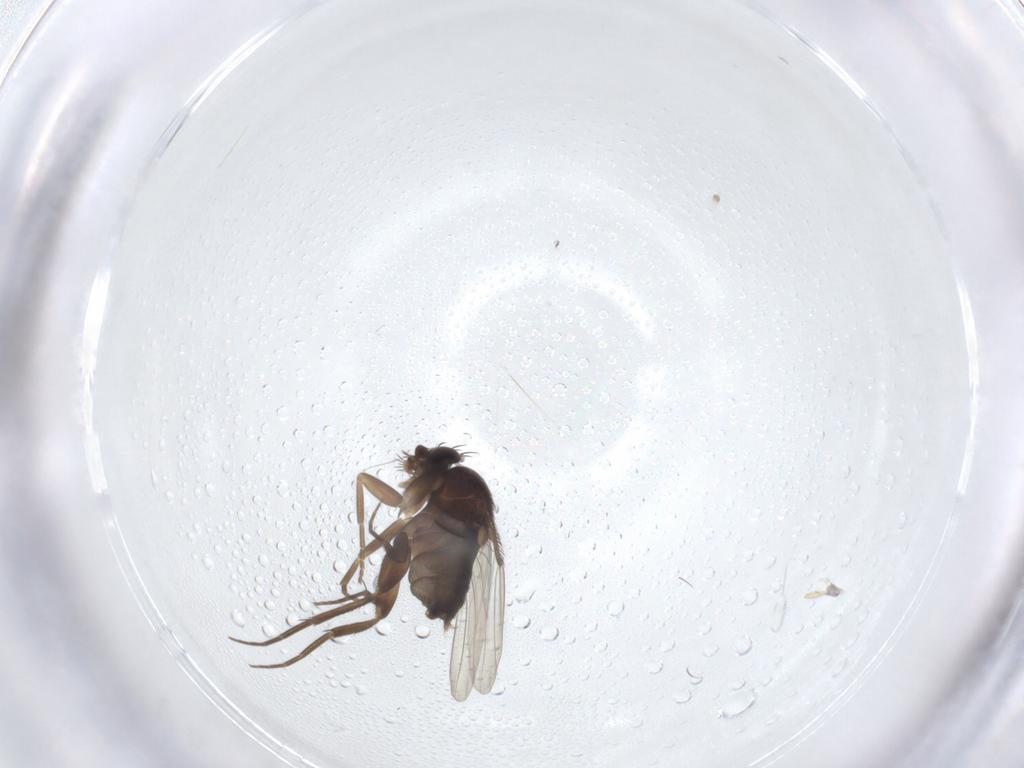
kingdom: Animalia
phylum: Arthropoda
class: Insecta
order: Diptera
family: Phoridae
